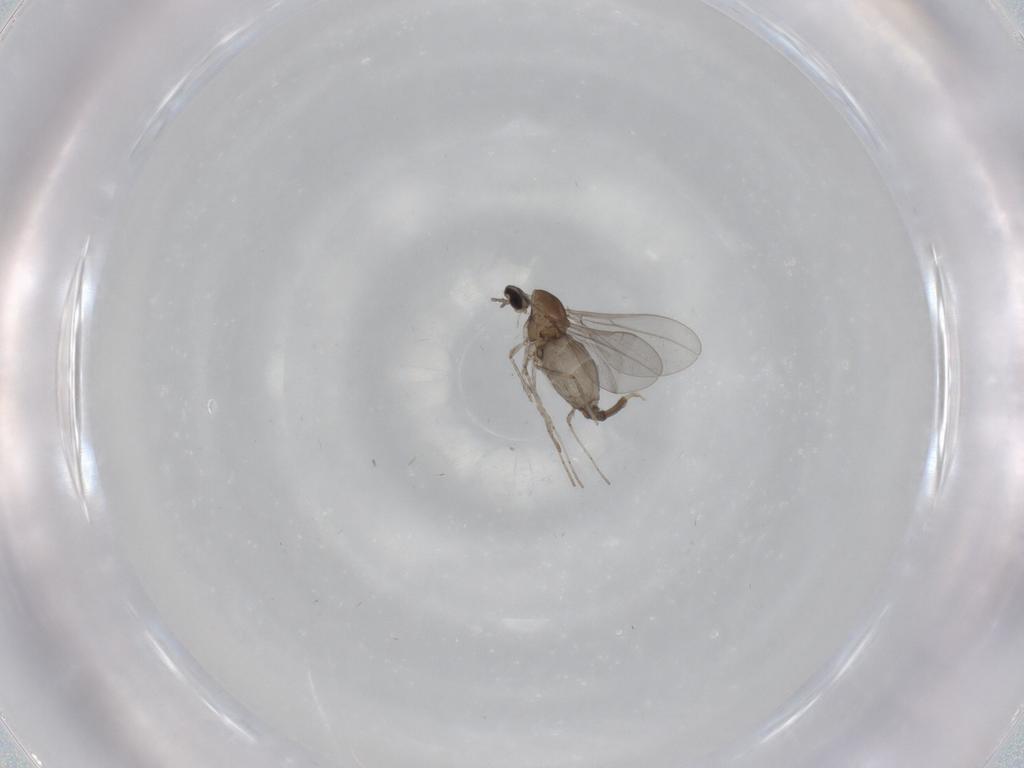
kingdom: Animalia
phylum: Arthropoda
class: Insecta
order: Diptera
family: Cecidomyiidae
